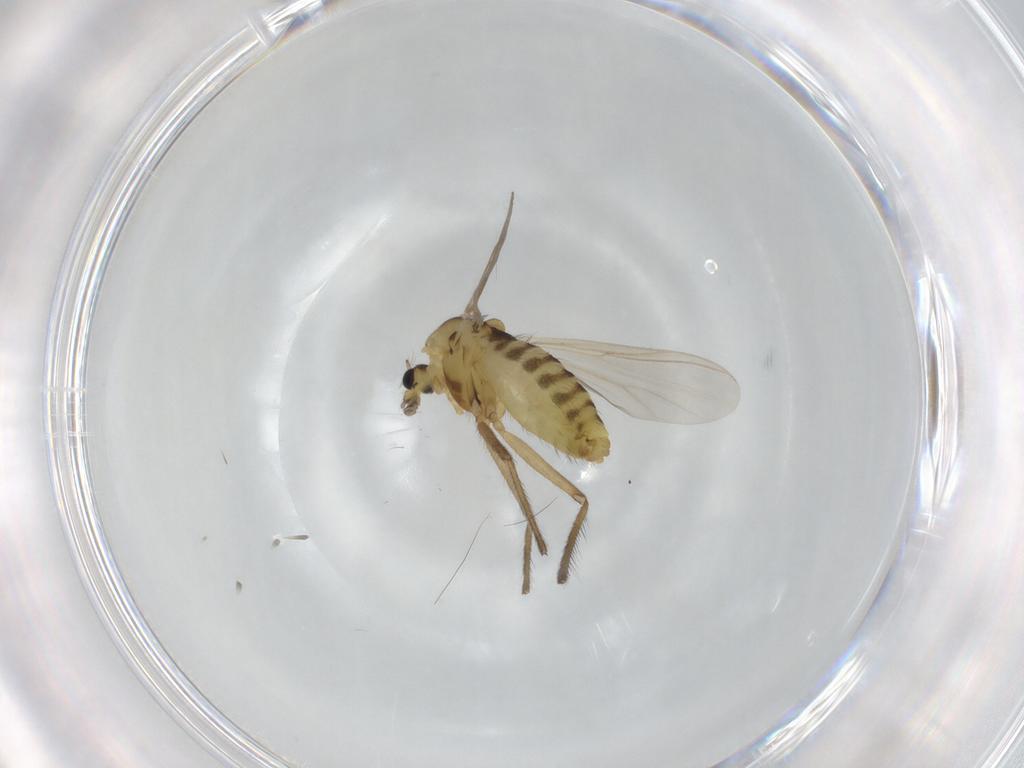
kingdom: Animalia
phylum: Arthropoda
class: Insecta
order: Diptera
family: Chironomidae
